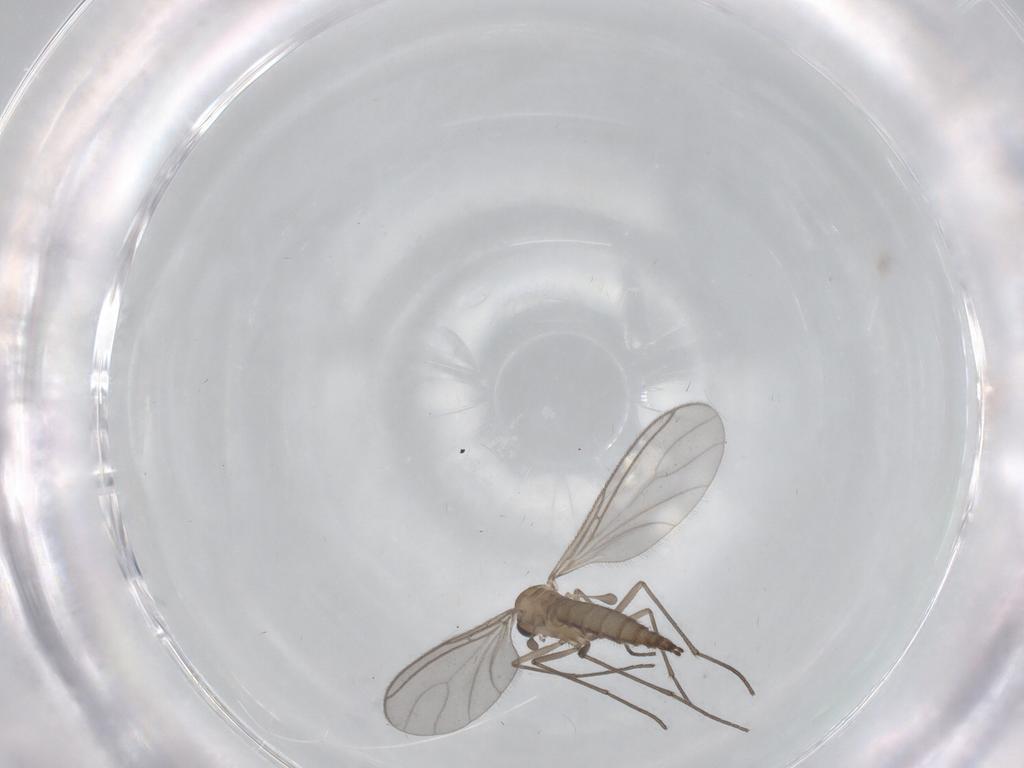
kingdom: Animalia
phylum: Arthropoda
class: Insecta
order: Diptera
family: Sciaridae
